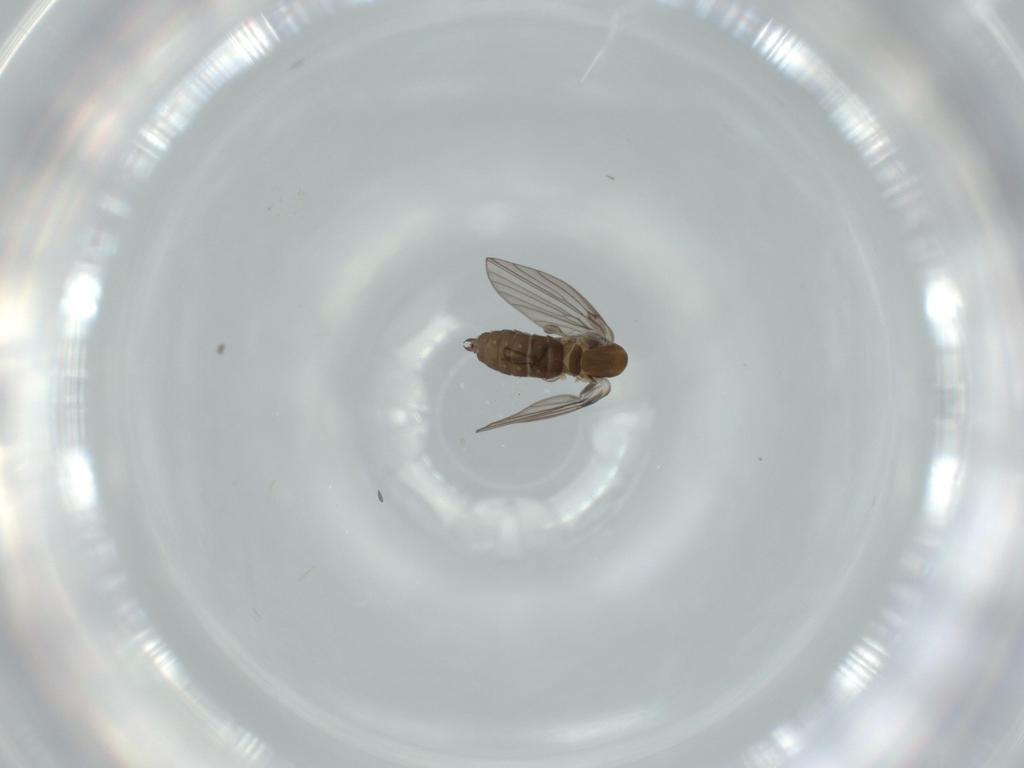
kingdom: Animalia
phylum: Arthropoda
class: Insecta
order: Diptera
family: Psychodidae
